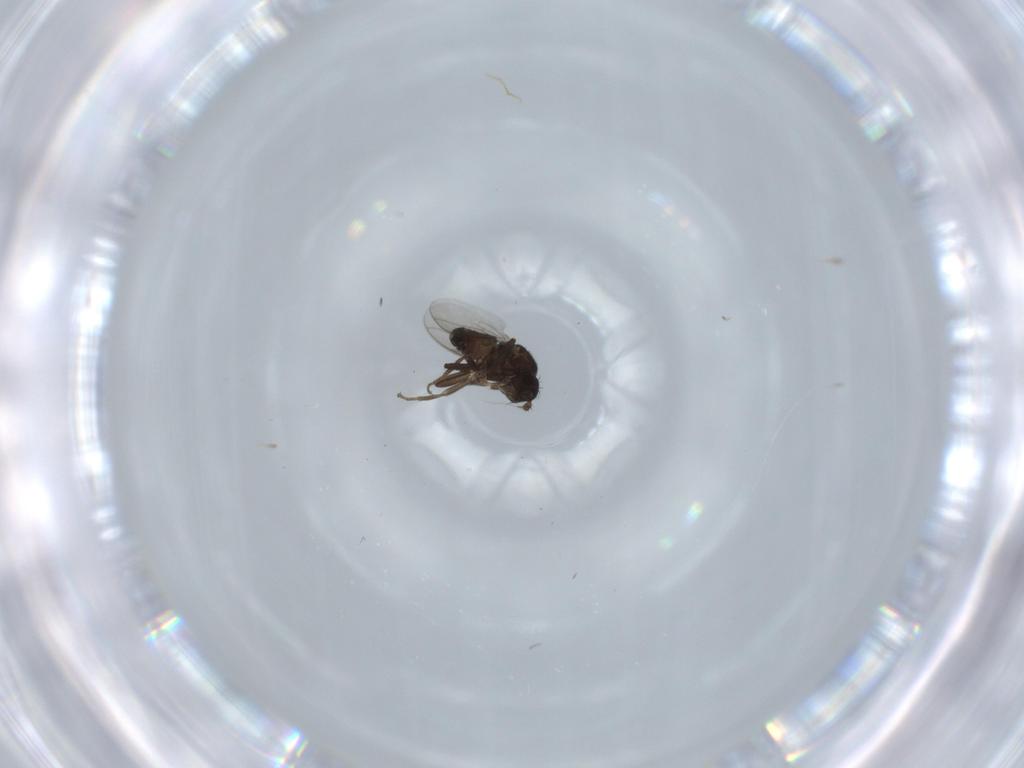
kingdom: Animalia
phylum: Arthropoda
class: Insecta
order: Diptera
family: Sphaeroceridae
